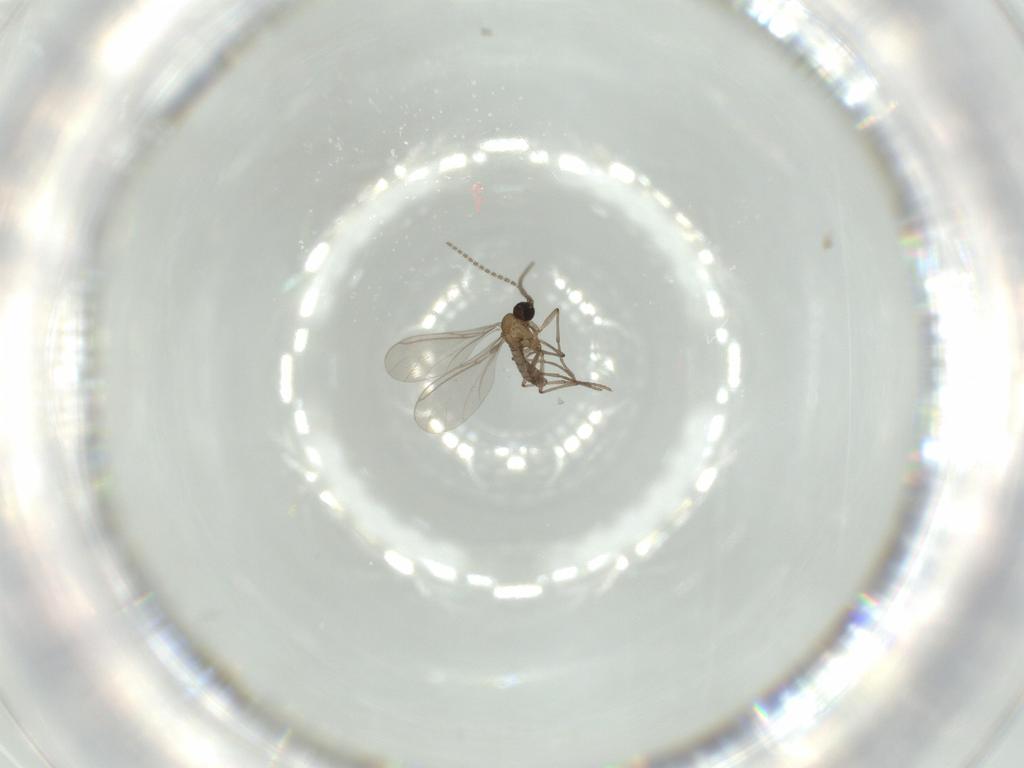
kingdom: Animalia
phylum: Arthropoda
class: Insecta
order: Diptera
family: Sciaridae
